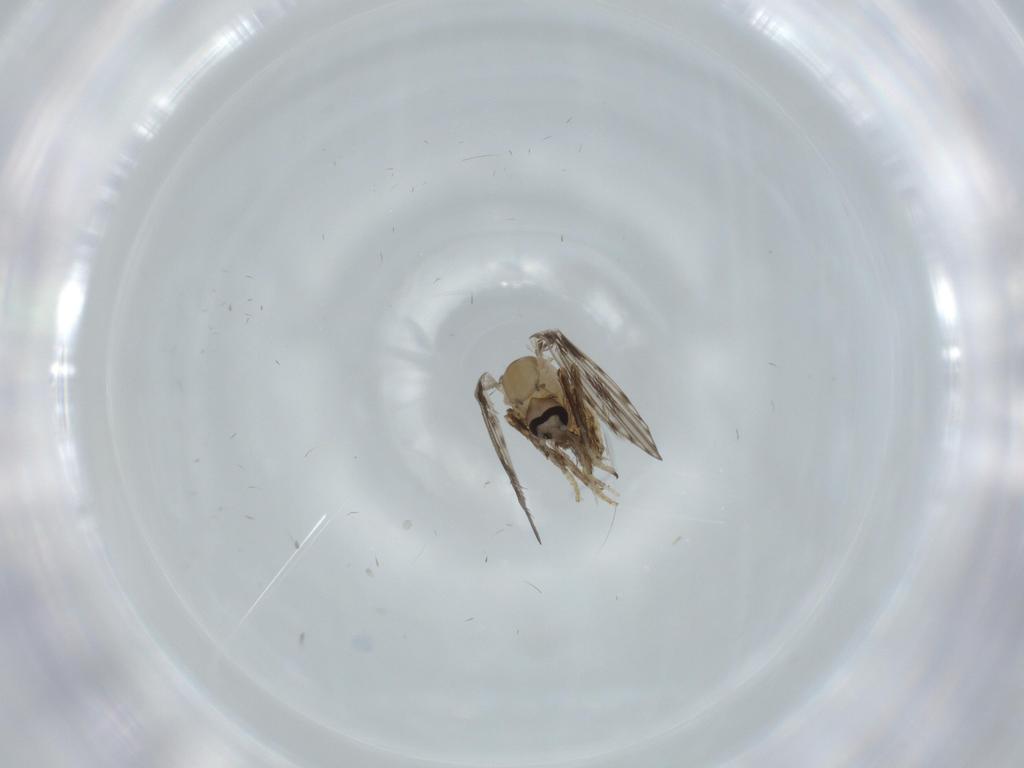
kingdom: Animalia
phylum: Arthropoda
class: Insecta
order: Diptera
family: Psychodidae
